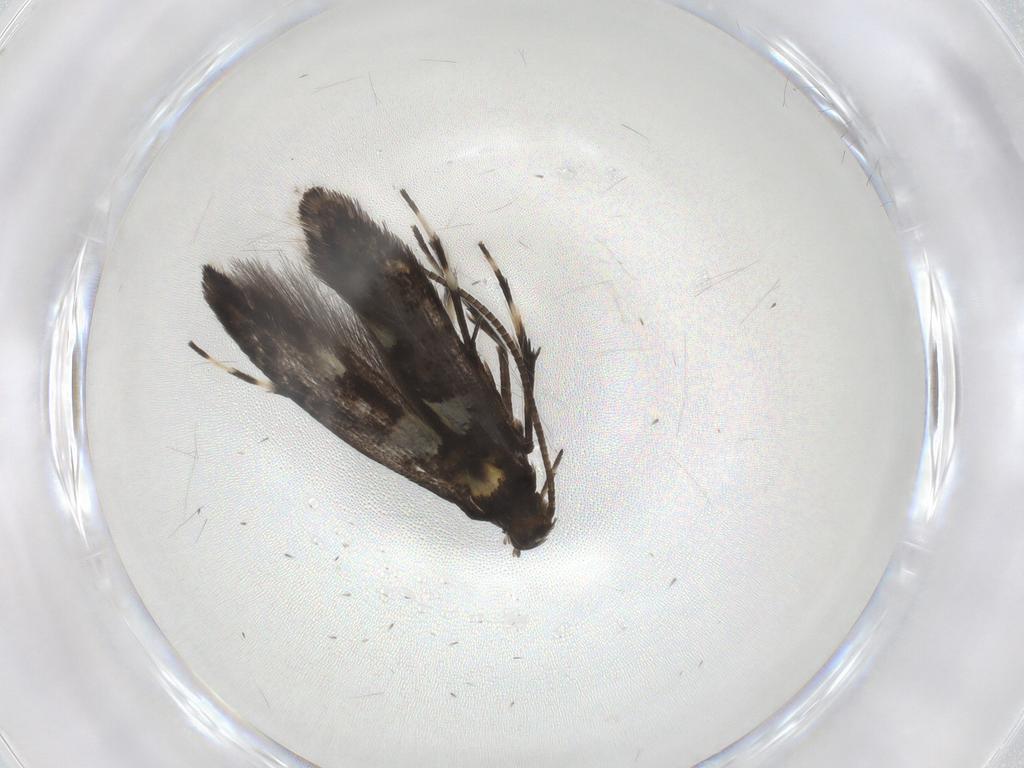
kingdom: Animalia
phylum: Arthropoda
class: Insecta
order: Lepidoptera
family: Gracillariidae
